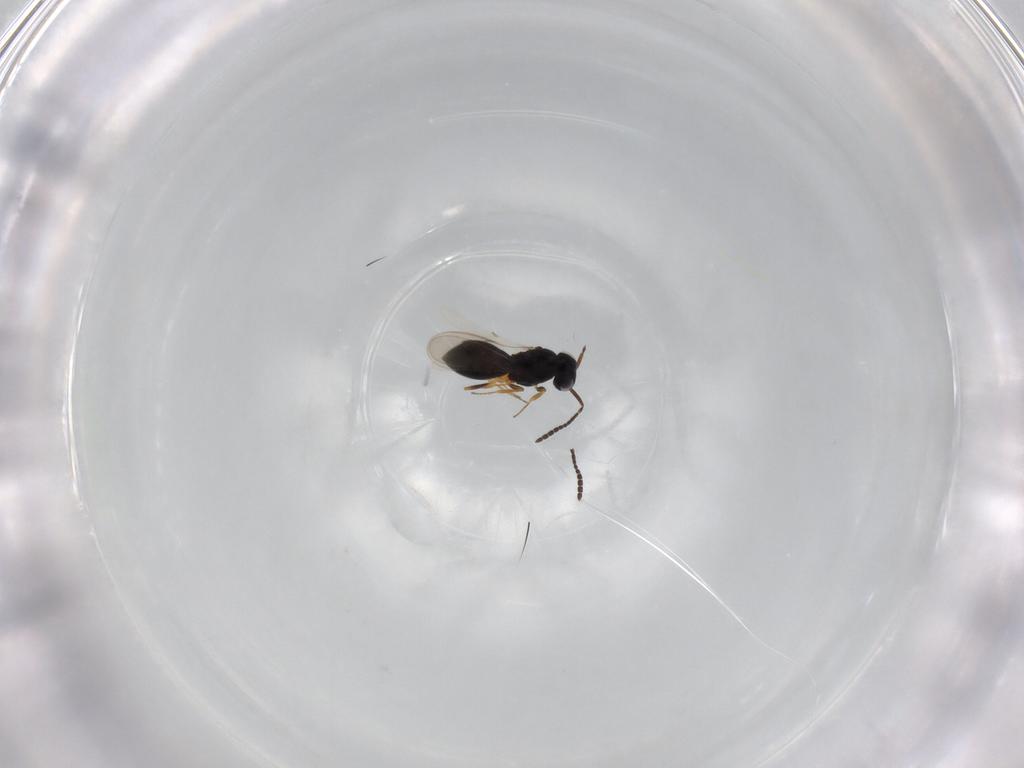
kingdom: Animalia
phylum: Arthropoda
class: Insecta
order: Hymenoptera
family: Scelionidae
